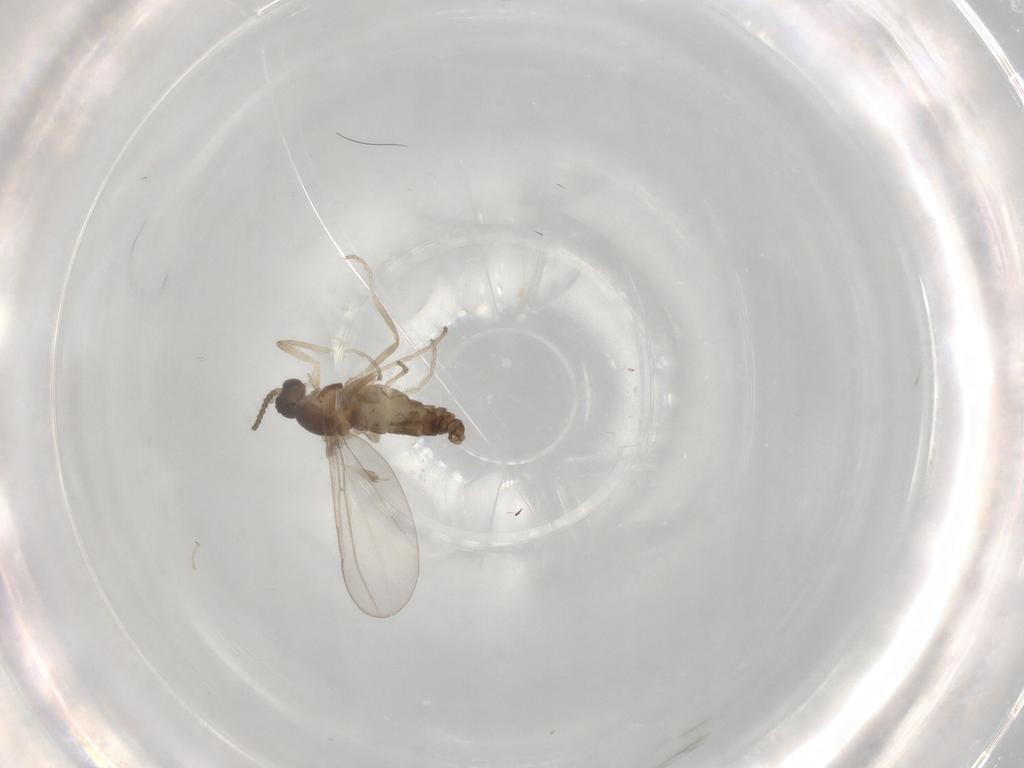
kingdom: Animalia
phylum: Arthropoda
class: Insecta
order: Diptera
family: Cecidomyiidae
